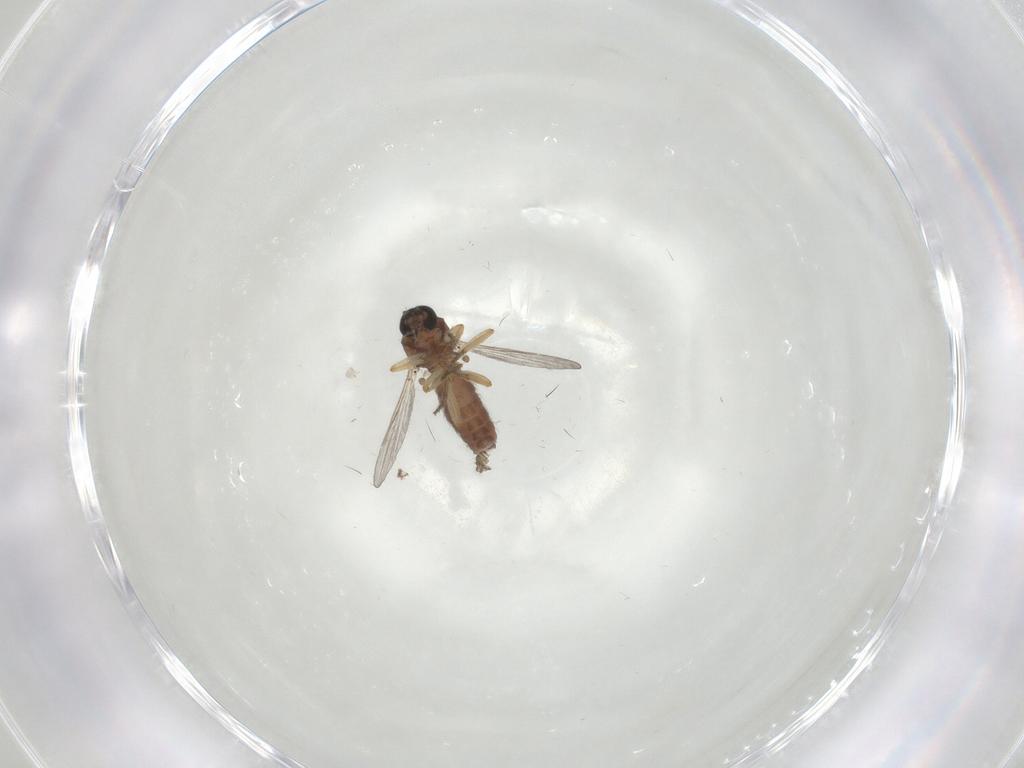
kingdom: Animalia
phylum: Arthropoda
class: Insecta
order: Diptera
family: Ceratopogonidae
